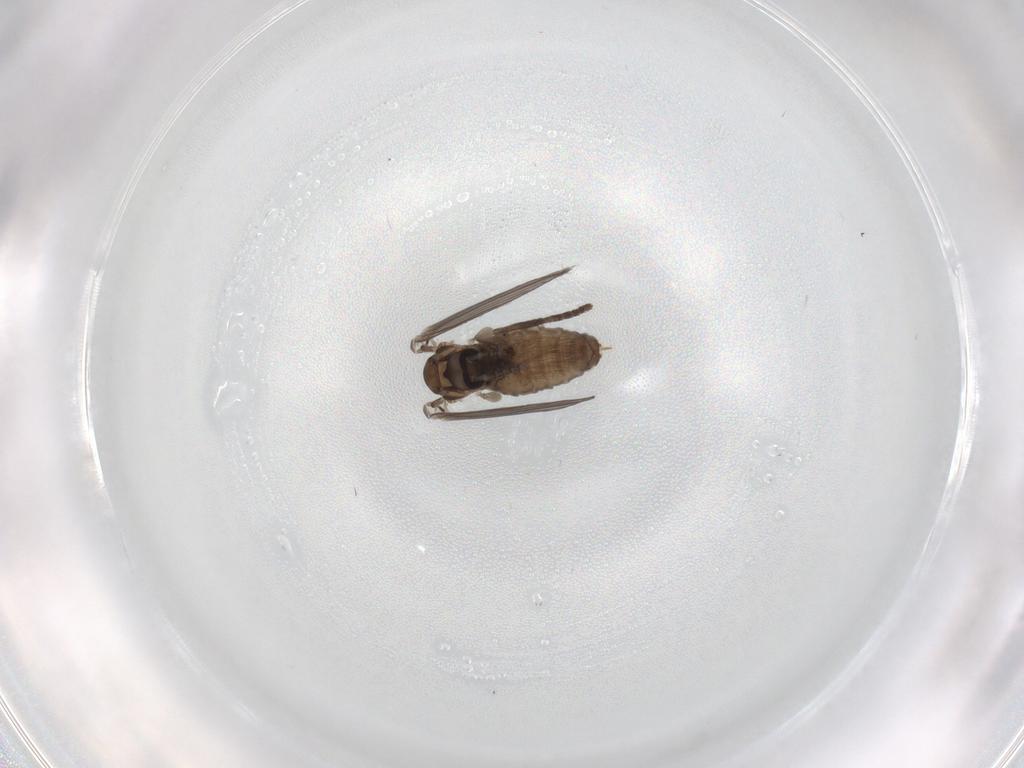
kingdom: Animalia
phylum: Arthropoda
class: Insecta
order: Diptera
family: Psychodidae
